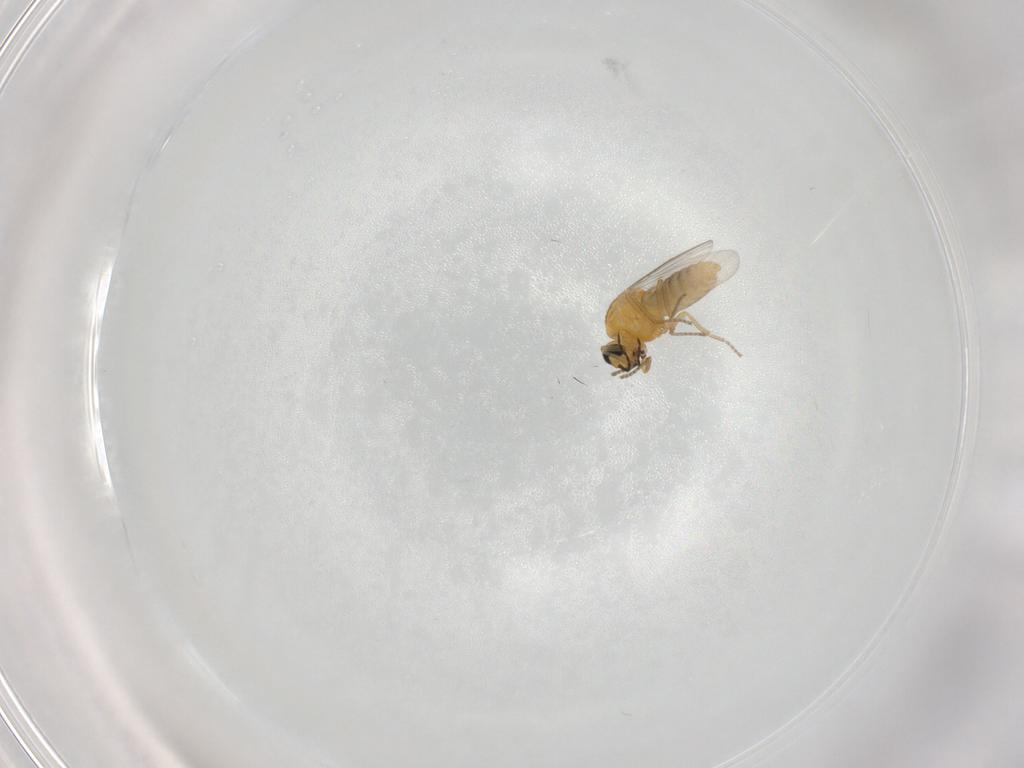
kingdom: Animalia
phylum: Arthropoda
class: Insecta
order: Diptera
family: Ceratopogonidae
